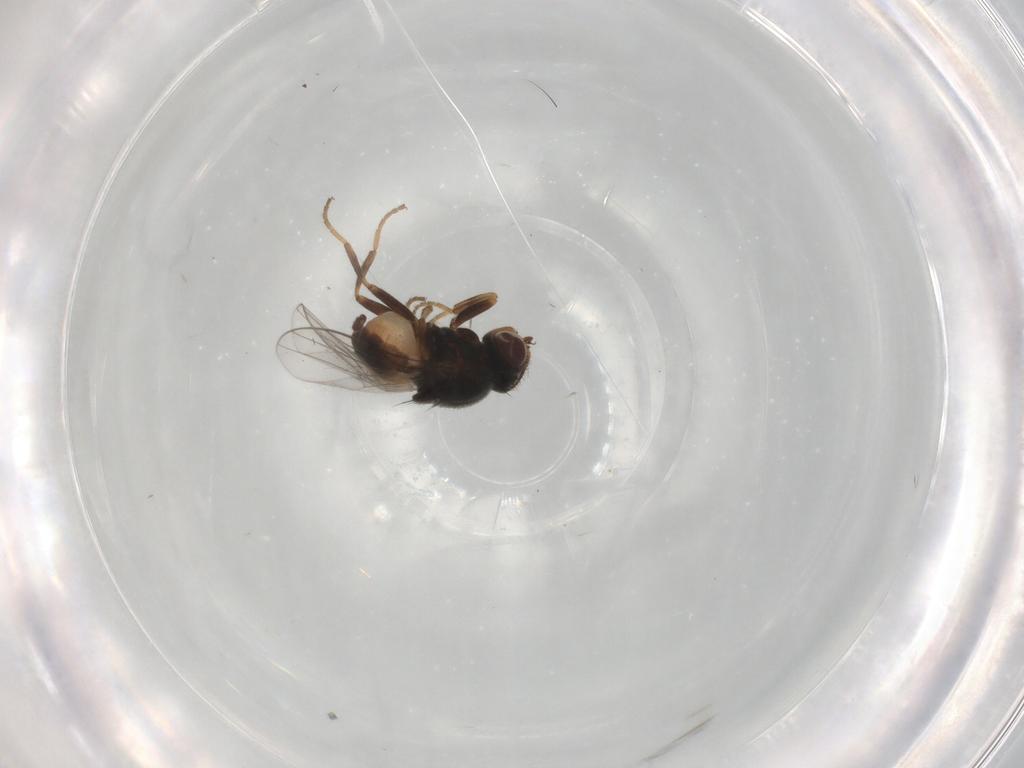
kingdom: Animalia
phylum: Arthropoda
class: Insecta
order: Diptera
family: Chloropidae
